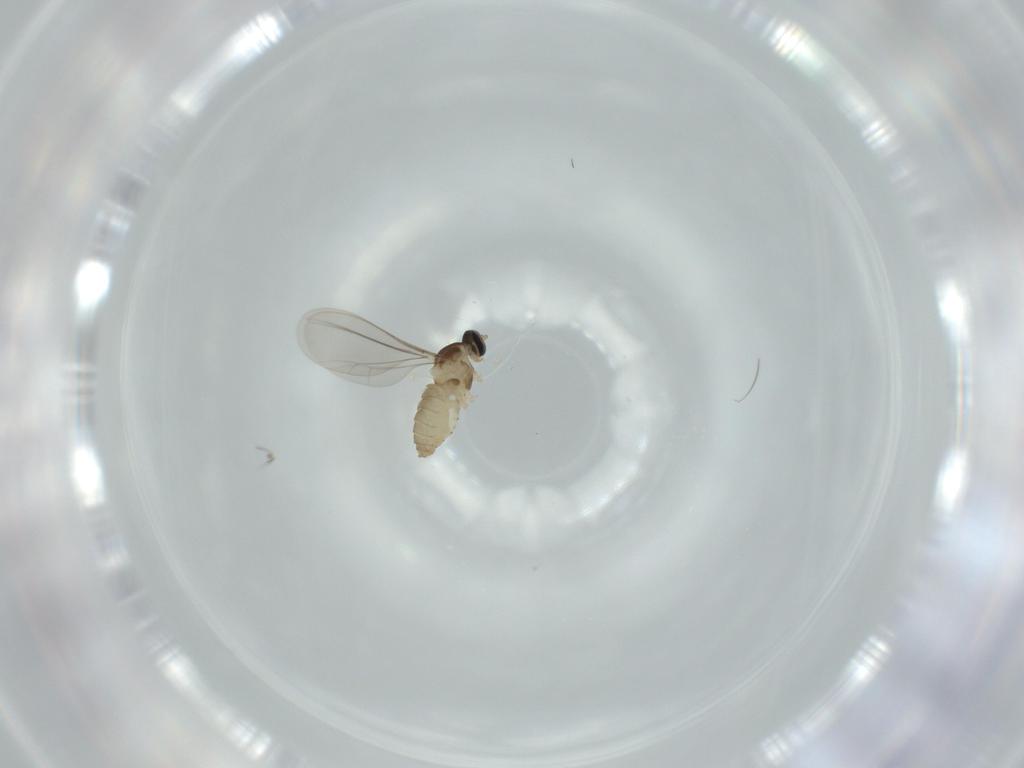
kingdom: Animalia
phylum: Arthropoda
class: Insecta
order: Diptera
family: Cecidomyiidae
